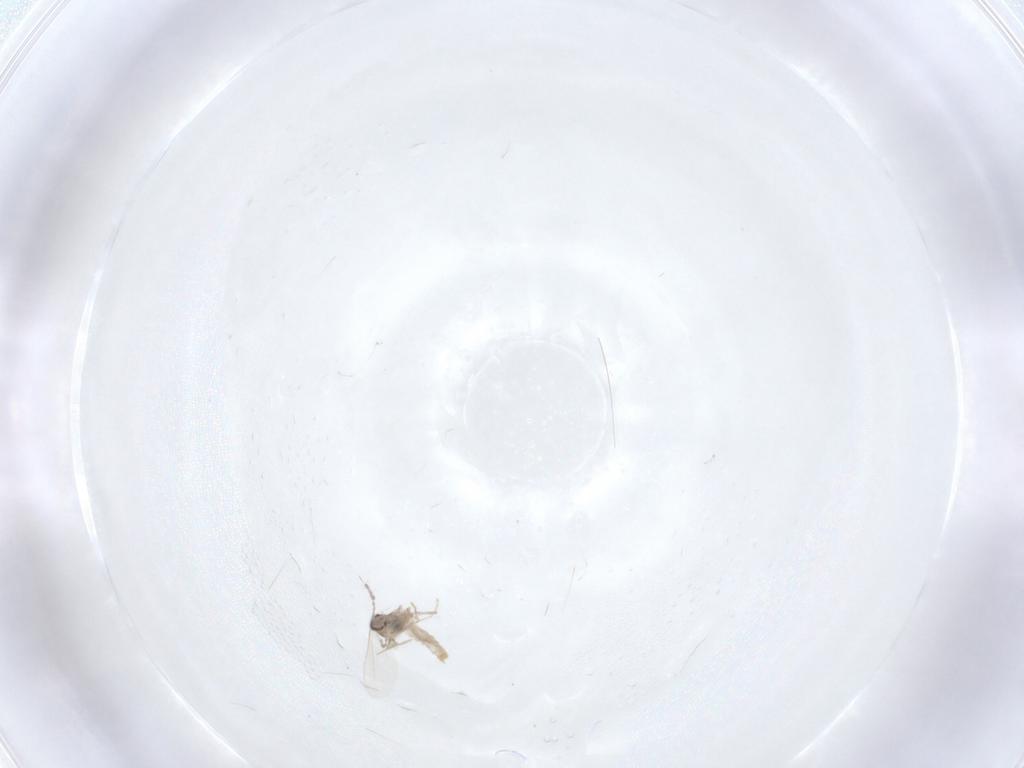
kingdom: Animalia
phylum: Arthropoda
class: Insecta
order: Diptera
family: Cecidomyiidae
